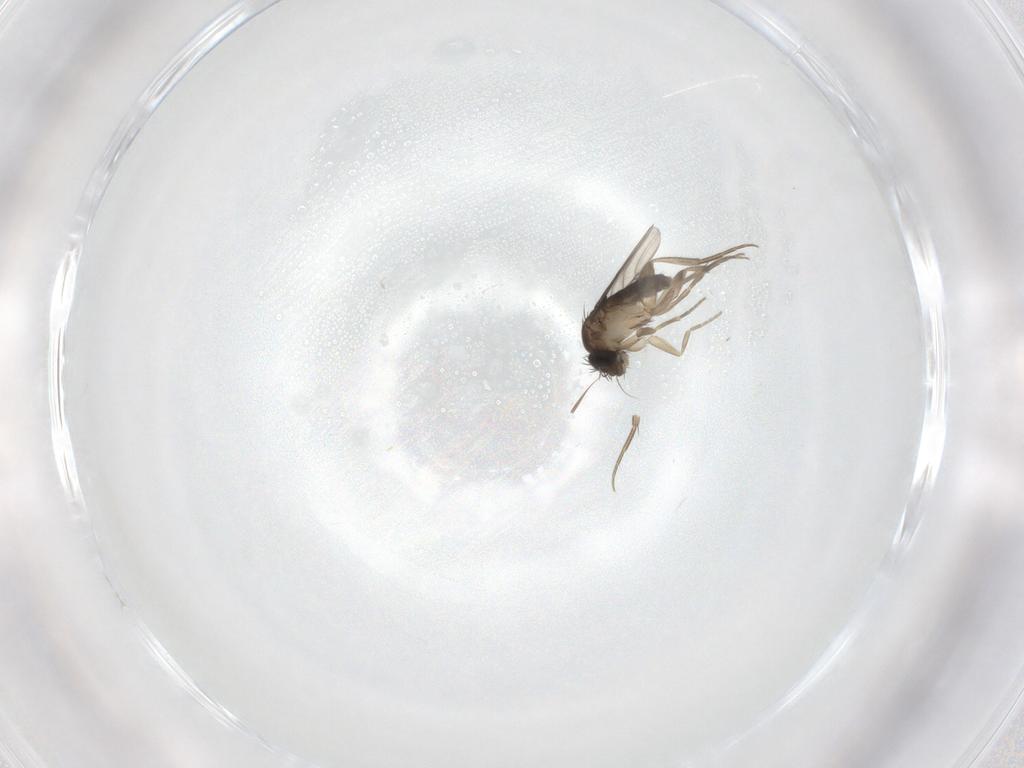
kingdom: Animalia
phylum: Arthropoda
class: Insecta
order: Diptera
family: Phoridae
